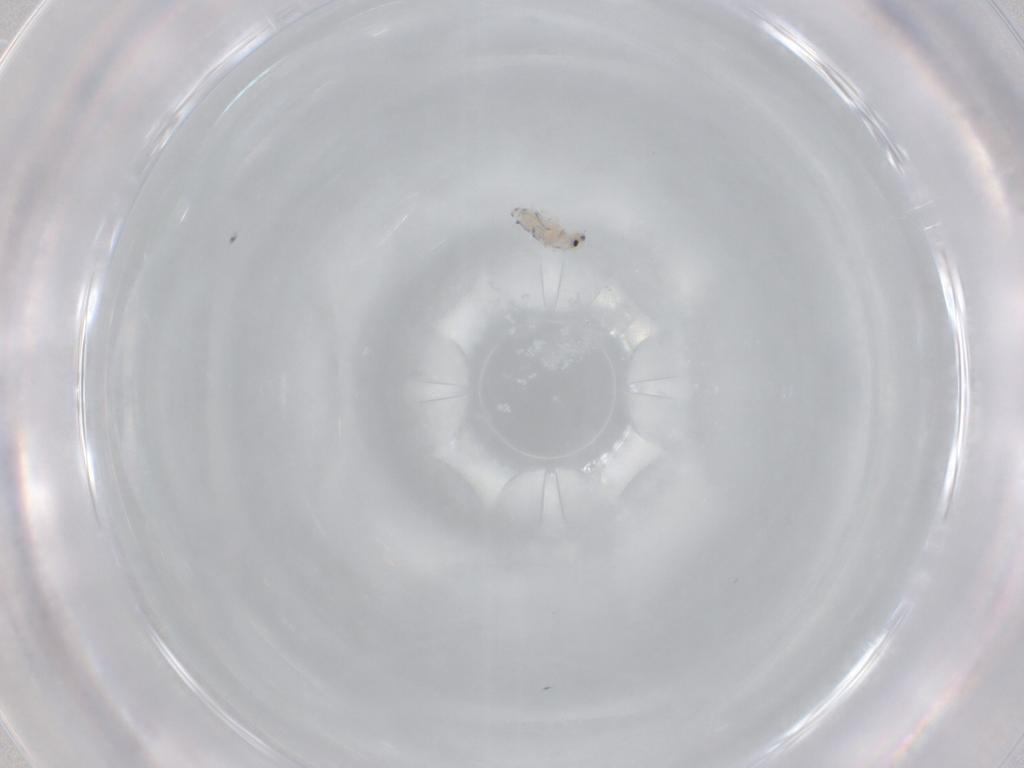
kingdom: Animalia
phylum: Arthropoda
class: Collembola
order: Entomobryomorpha
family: Entomobryidae
